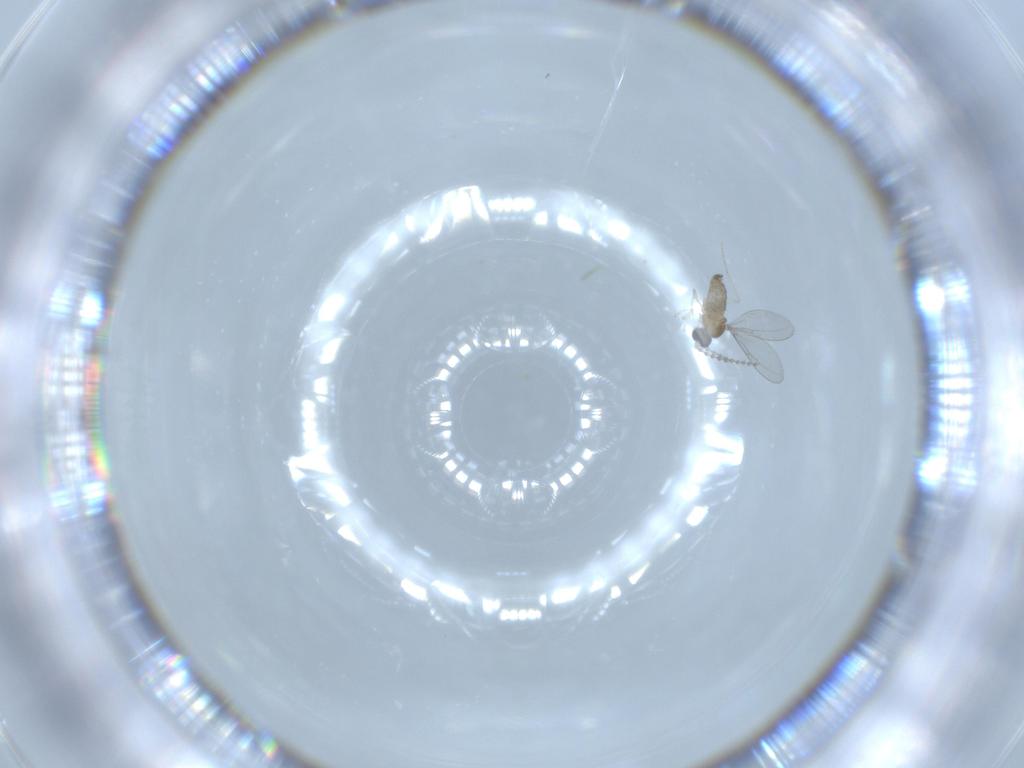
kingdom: Animalia
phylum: Arthropoda
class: Insecta
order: Diptera
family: Cecidomyiidae
